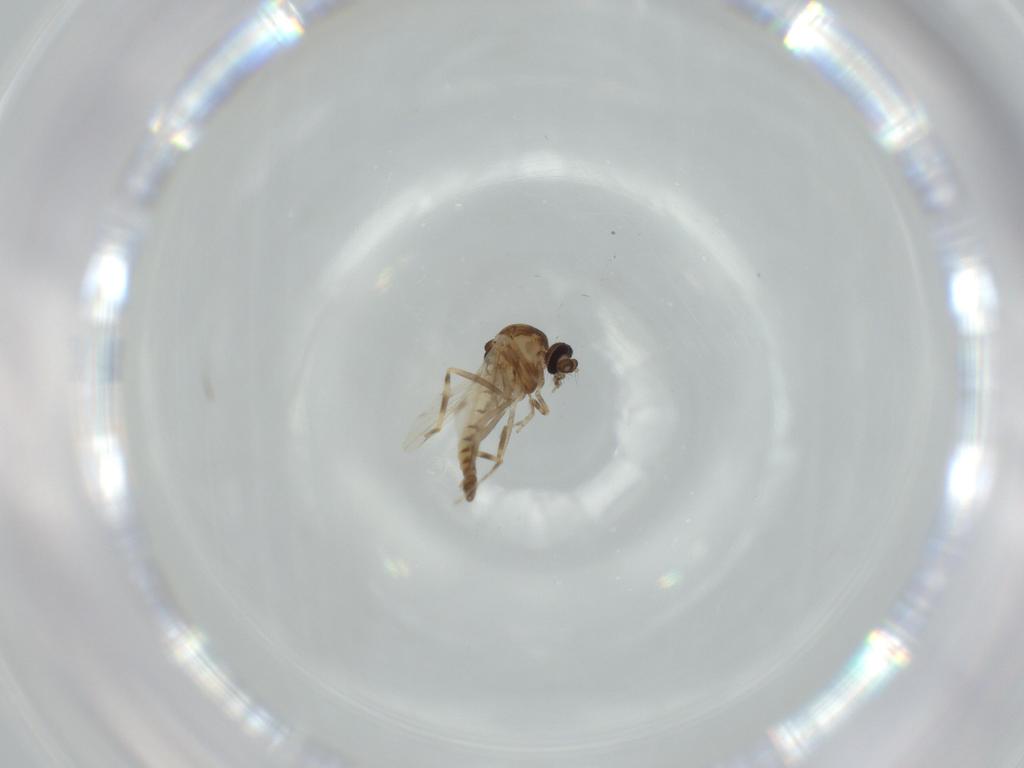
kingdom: Animalia
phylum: Arthropoda
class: Insecta
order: Diptera
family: Ceratopogonidae
